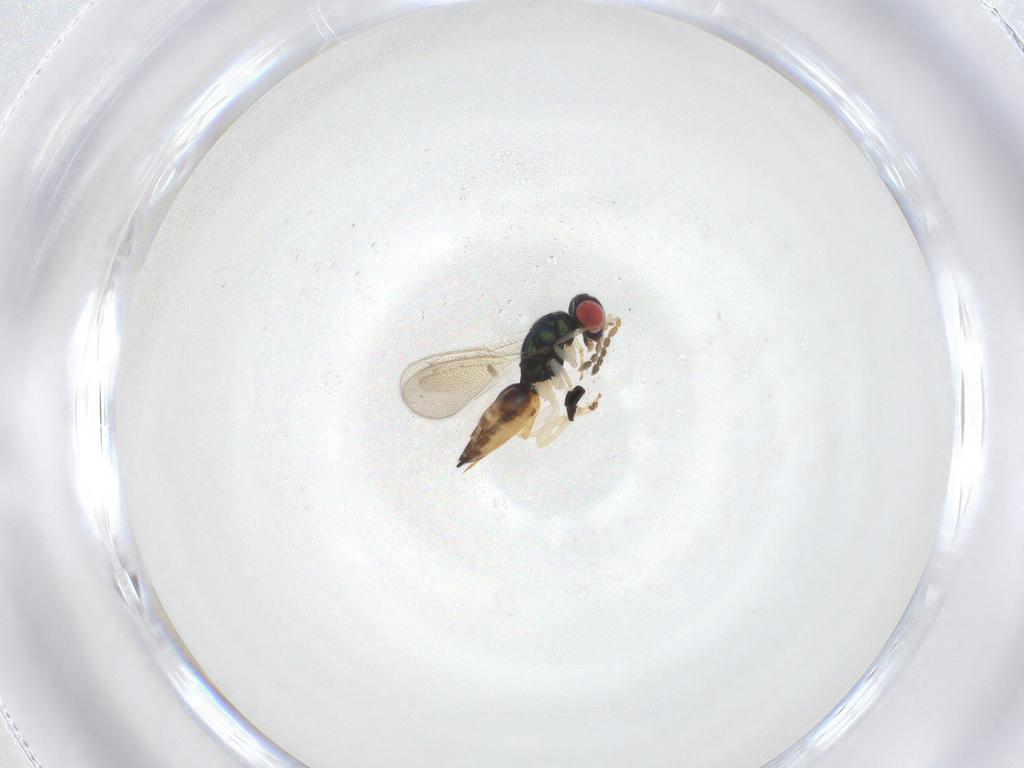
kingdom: Animalia
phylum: Arthropoda
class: Insecta
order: Hymenoptera
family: Eulophidae
